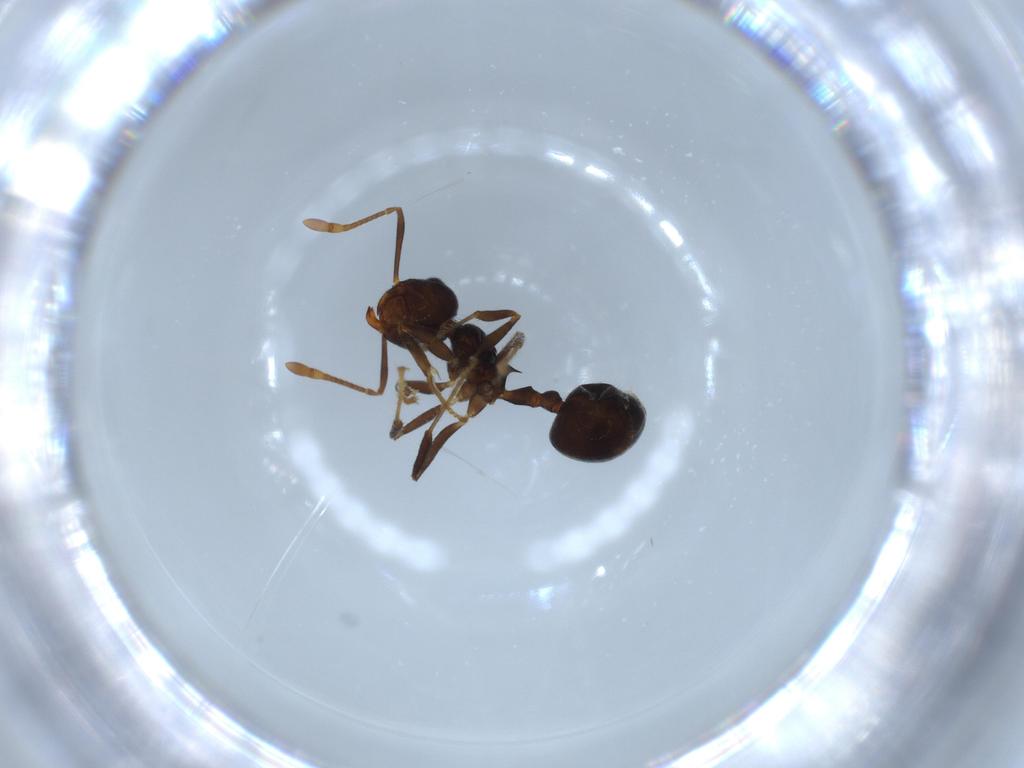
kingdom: Animalia
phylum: Arthropoda
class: Insecta
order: Hymenoptera
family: Formicidae
